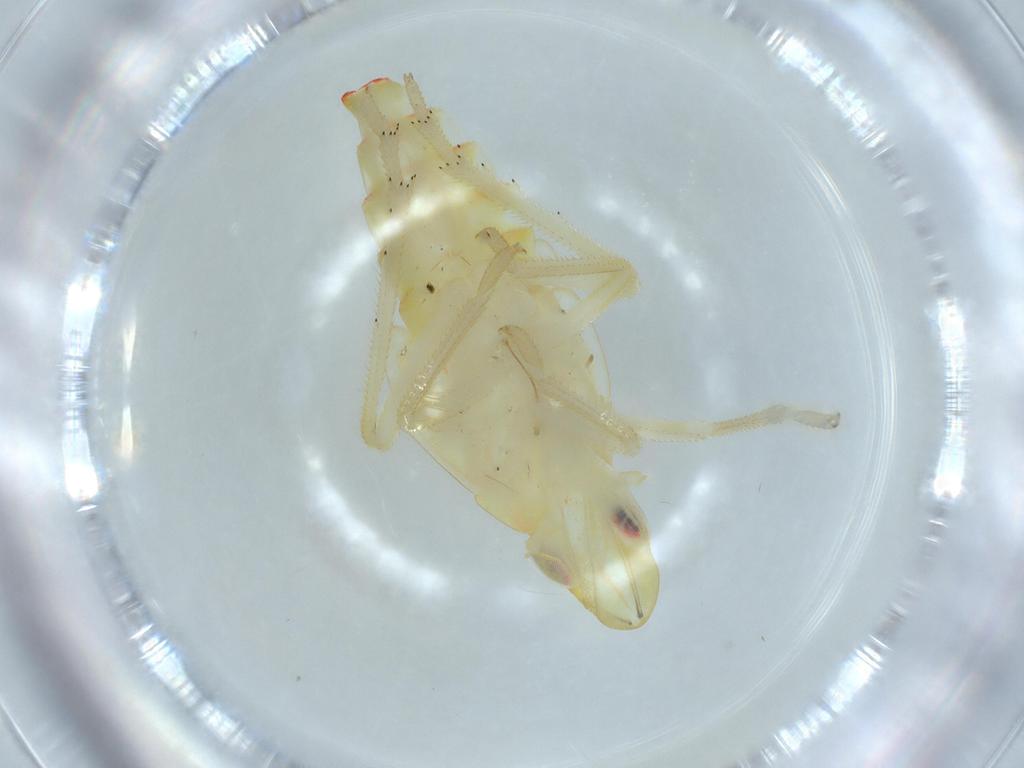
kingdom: Animalia
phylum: Arthropoda
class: Insecta
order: Hemiptera
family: Tropiduchidae
